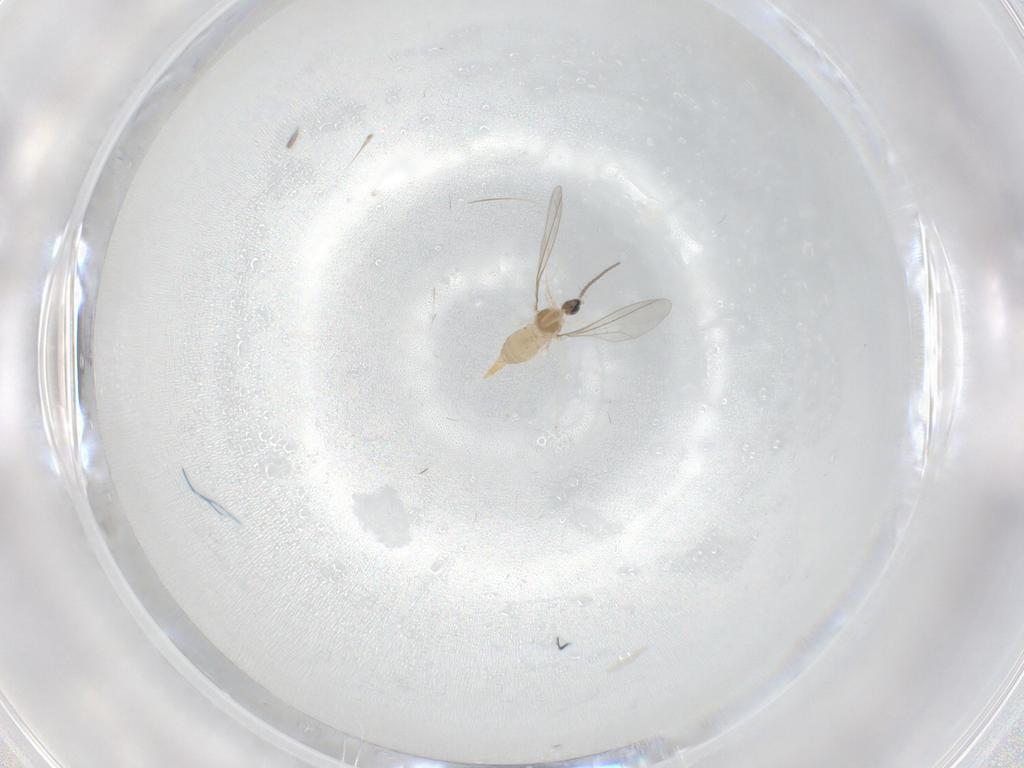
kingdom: Animalia
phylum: Arthropoda
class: Insecta
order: Diptera
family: Cecidomyiidae
